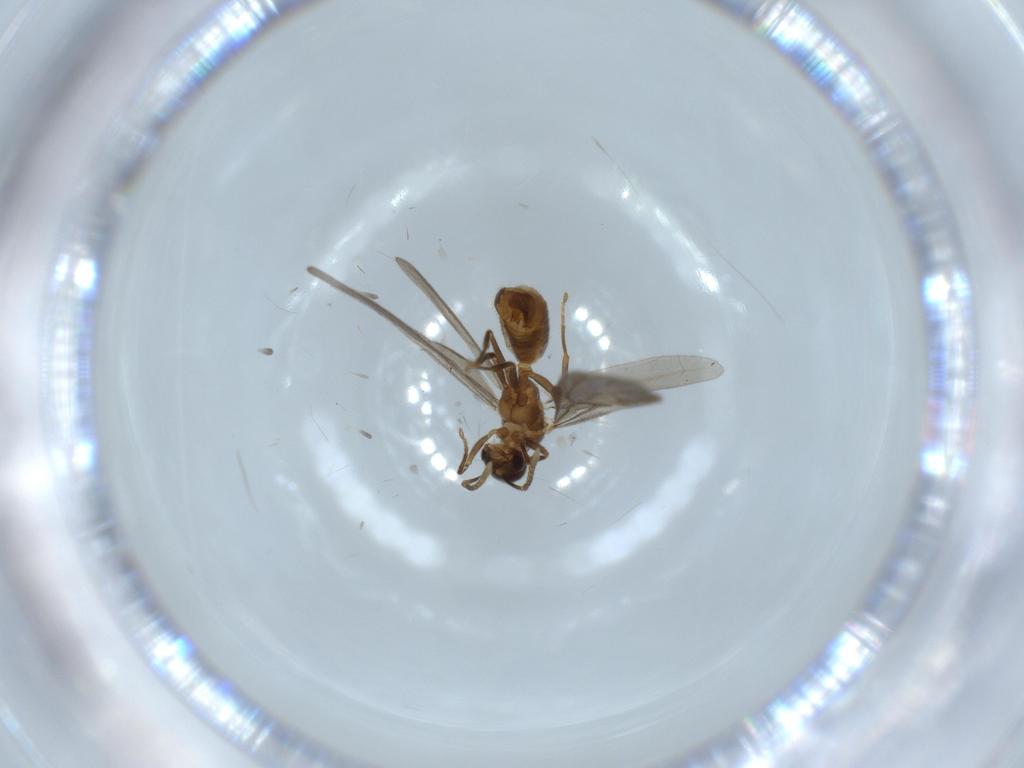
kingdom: Animalia
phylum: Arthropoda
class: Insecta
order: Hymenoptera
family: Formicidae
